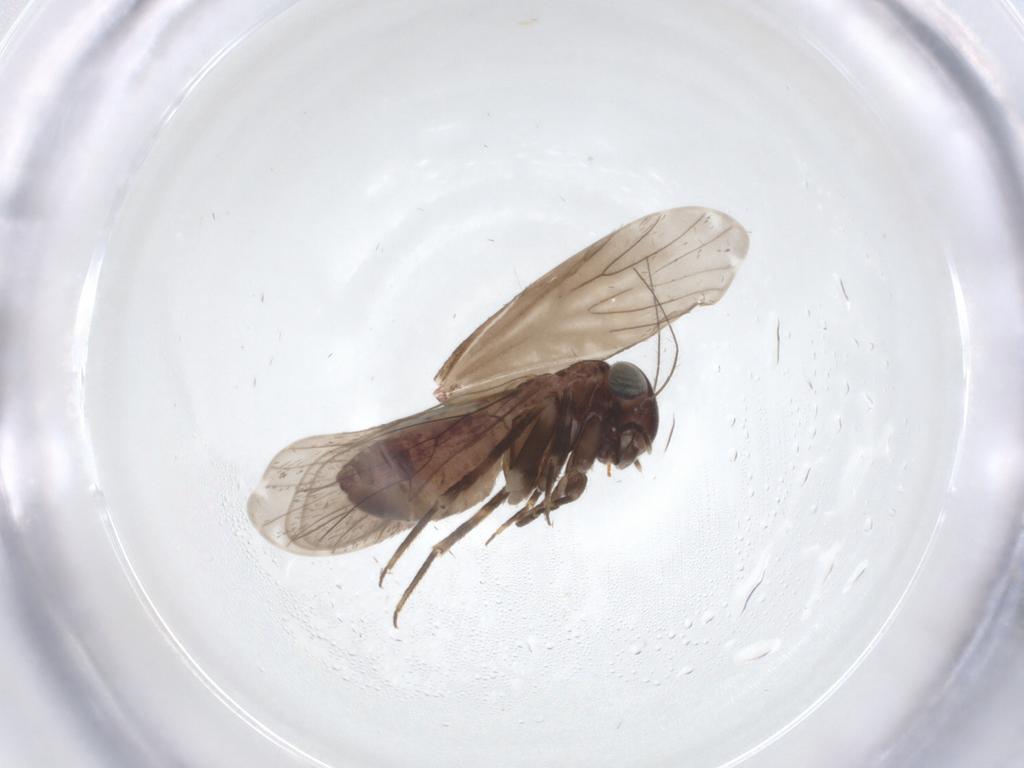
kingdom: Animalia
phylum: Arthropoda
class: Insecta
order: Psocodea
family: Amphientomidae
